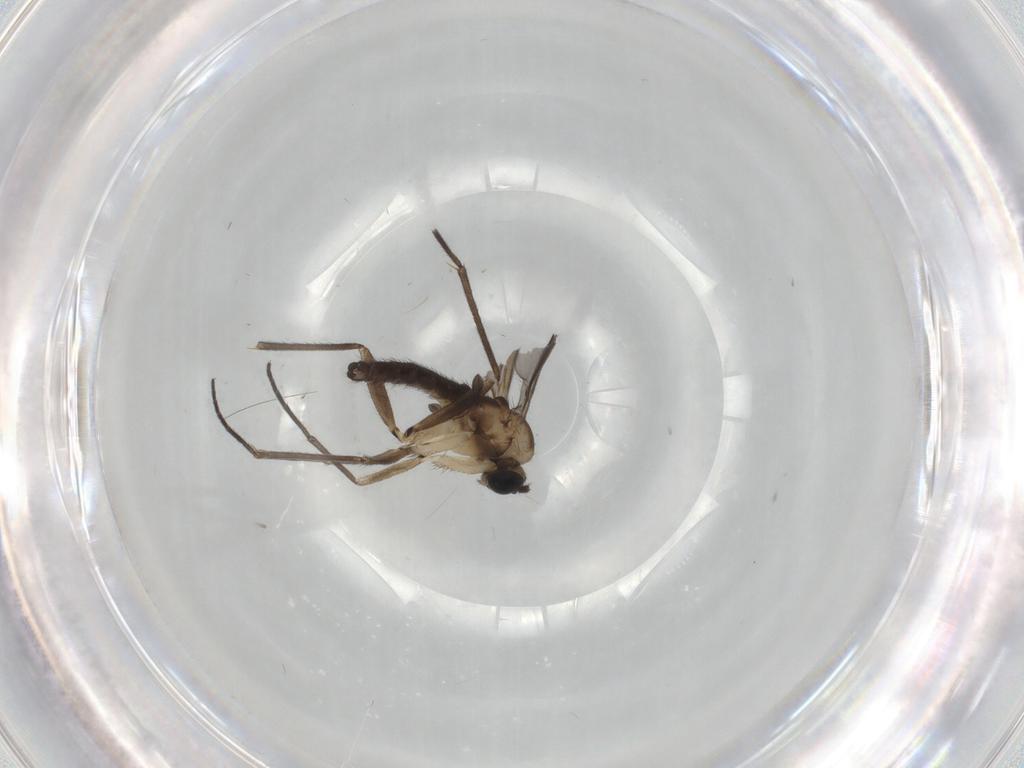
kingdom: Animalia
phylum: Arthropoda
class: Insecta
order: Diptera
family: Sciaridae
